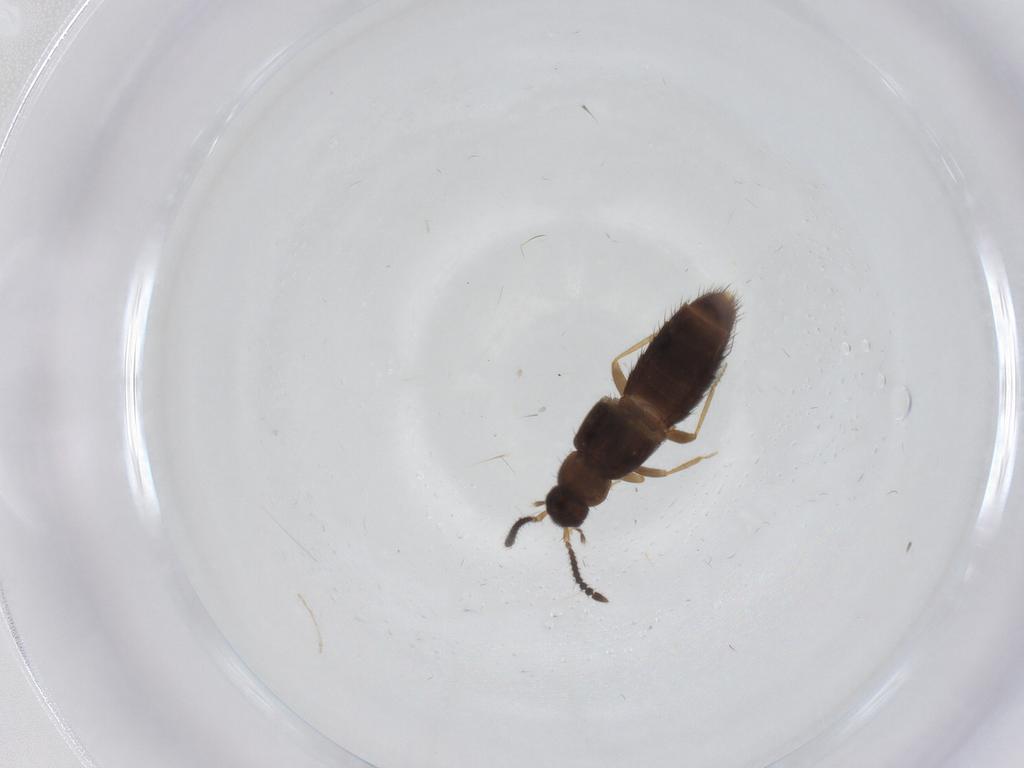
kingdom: Animalia
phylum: Arthropoda
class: Insecta
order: Coleoptera
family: Staphylinidae
